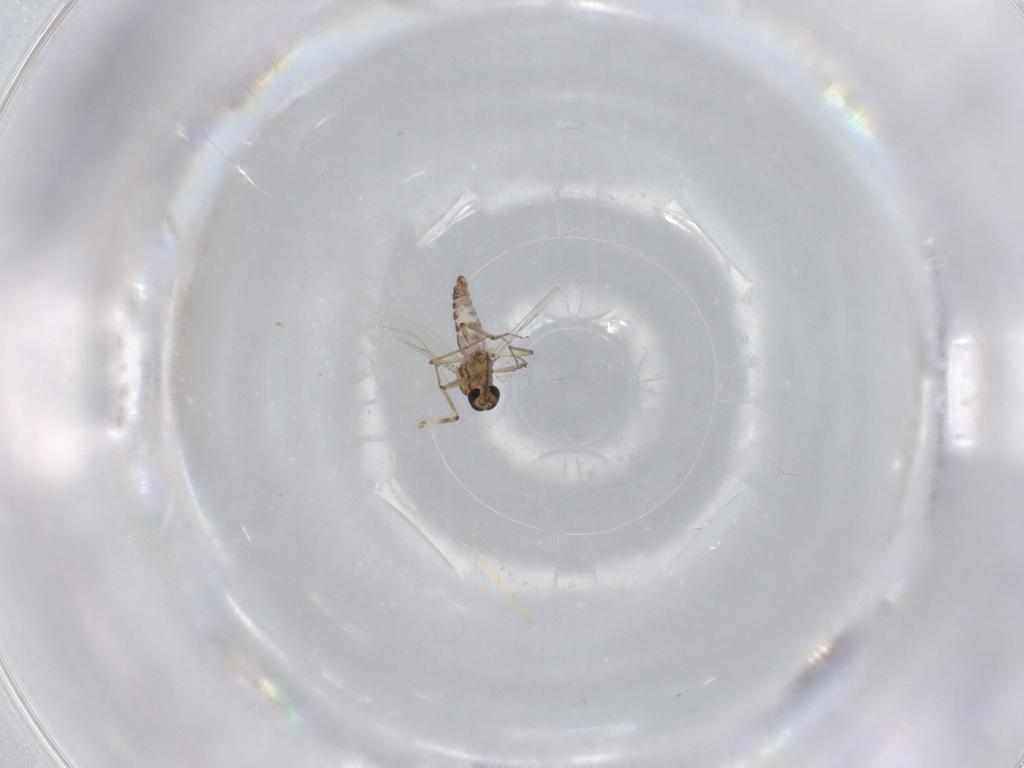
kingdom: Animalia
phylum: Arthropoda
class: Insecta
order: Diptera
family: Ceratopogonidae
